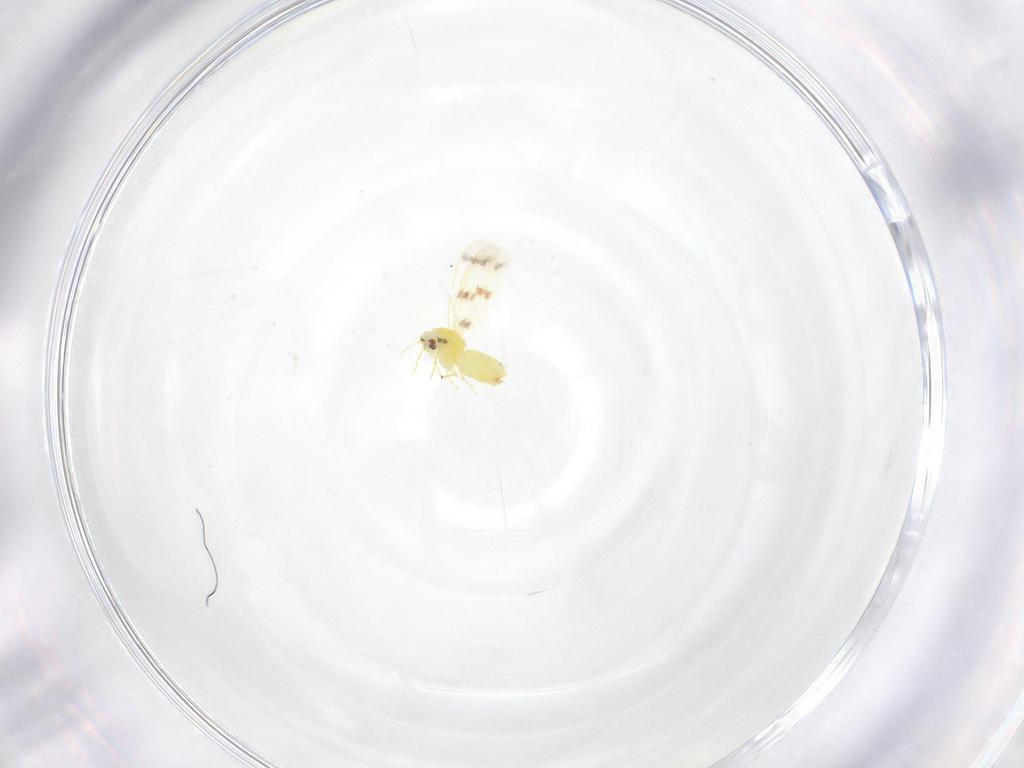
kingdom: Animalia
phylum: Arthropoda
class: Insecta
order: Hemiptera
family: Aleyrodidae
